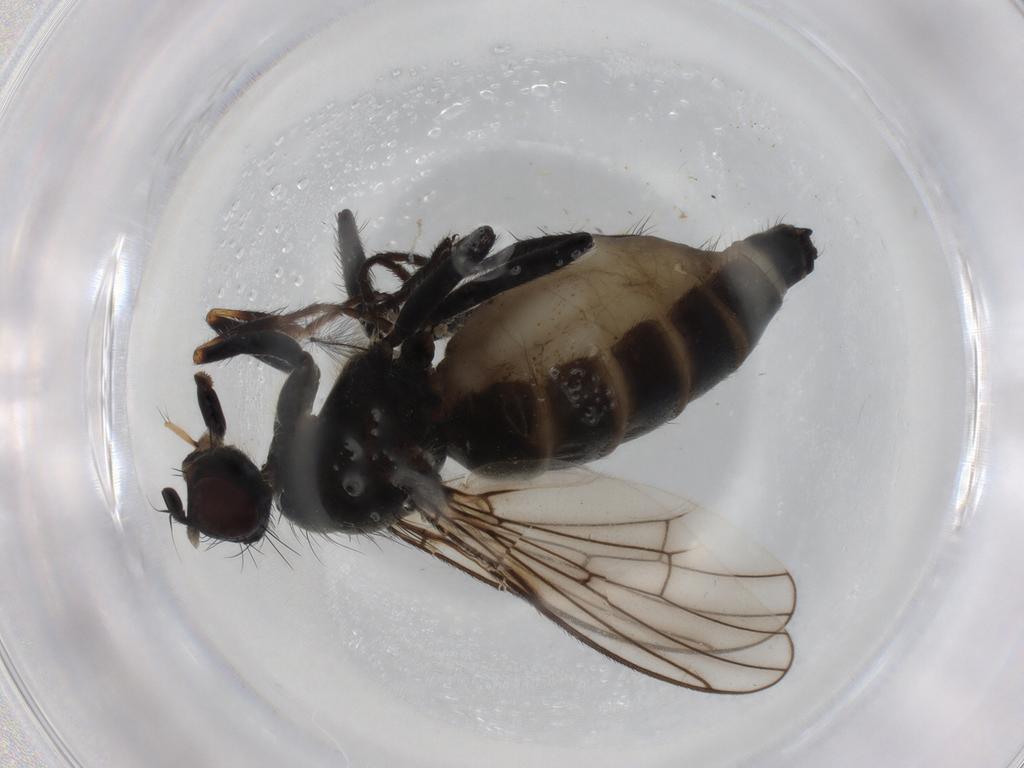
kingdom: Animalia
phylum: Arthropoda
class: Insecta
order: Diptera
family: Scathophagidae
